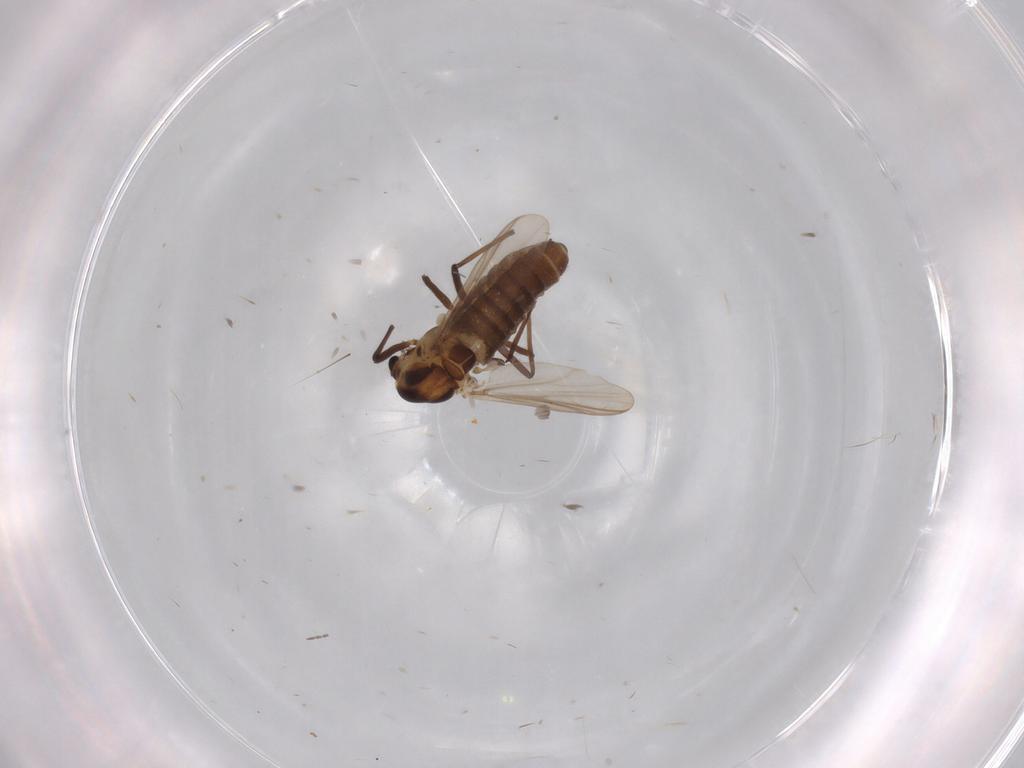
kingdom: Animalia
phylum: Arthropoda
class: Insecta
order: Diptera
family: Chironomidae
